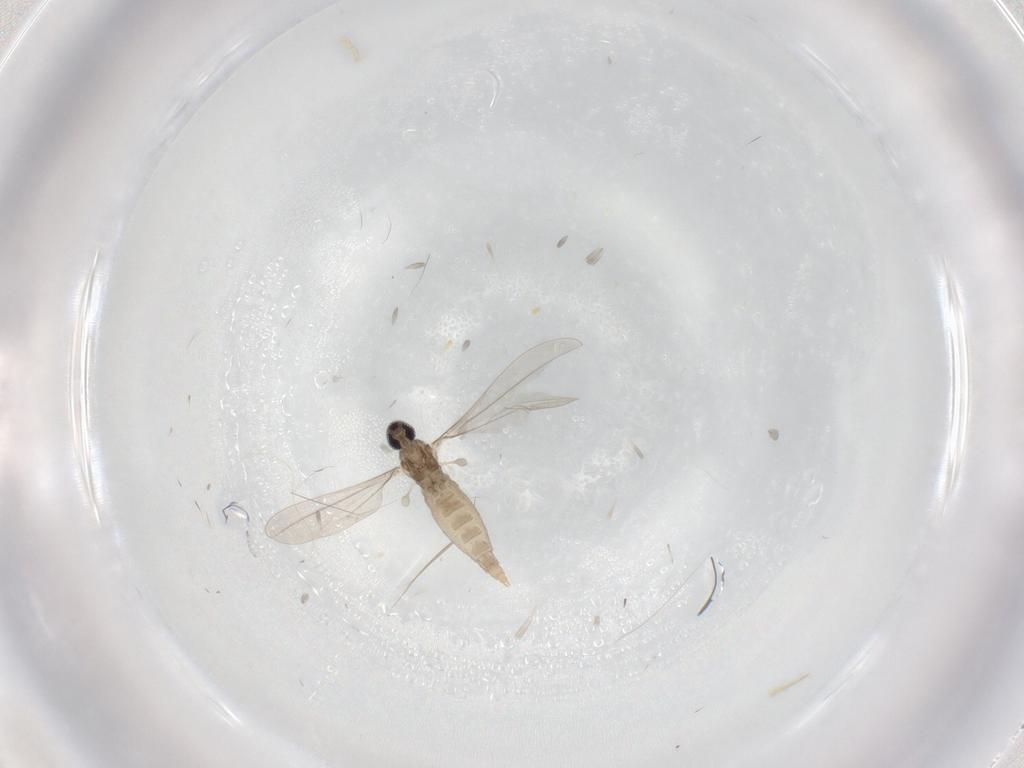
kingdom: Animalia
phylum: Arthropoda
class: Insecta
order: Diptera
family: Cecidomyiidae
